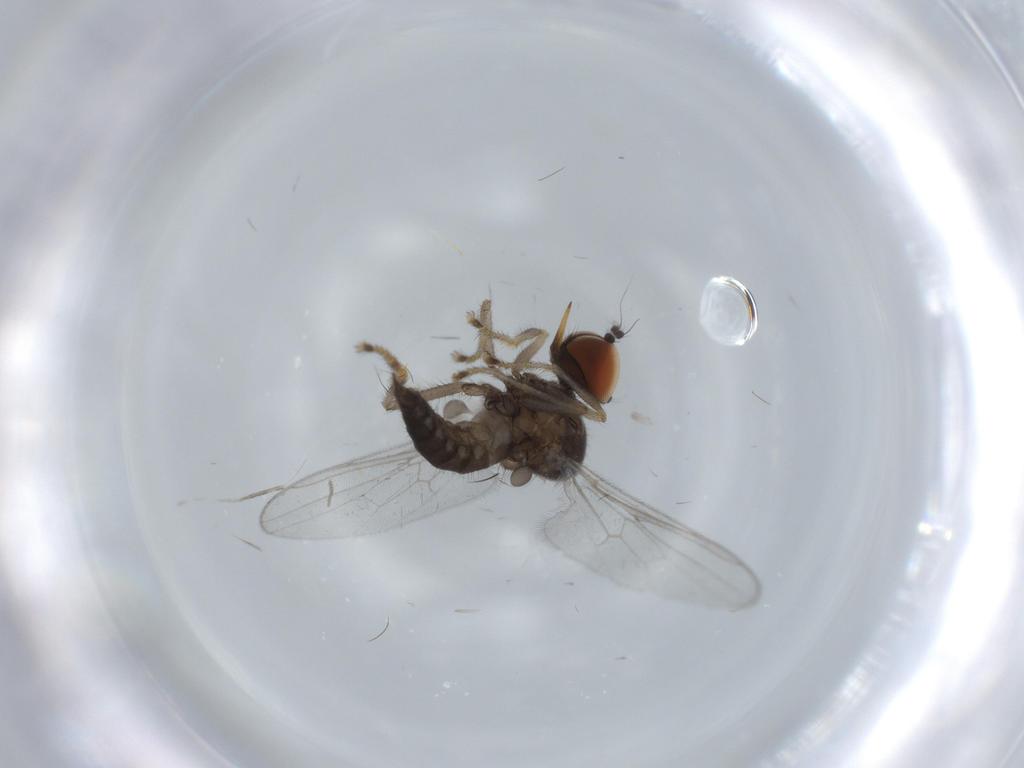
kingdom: Animalia
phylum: Arthropoda
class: Insecta
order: Diptera
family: Hybotidae
